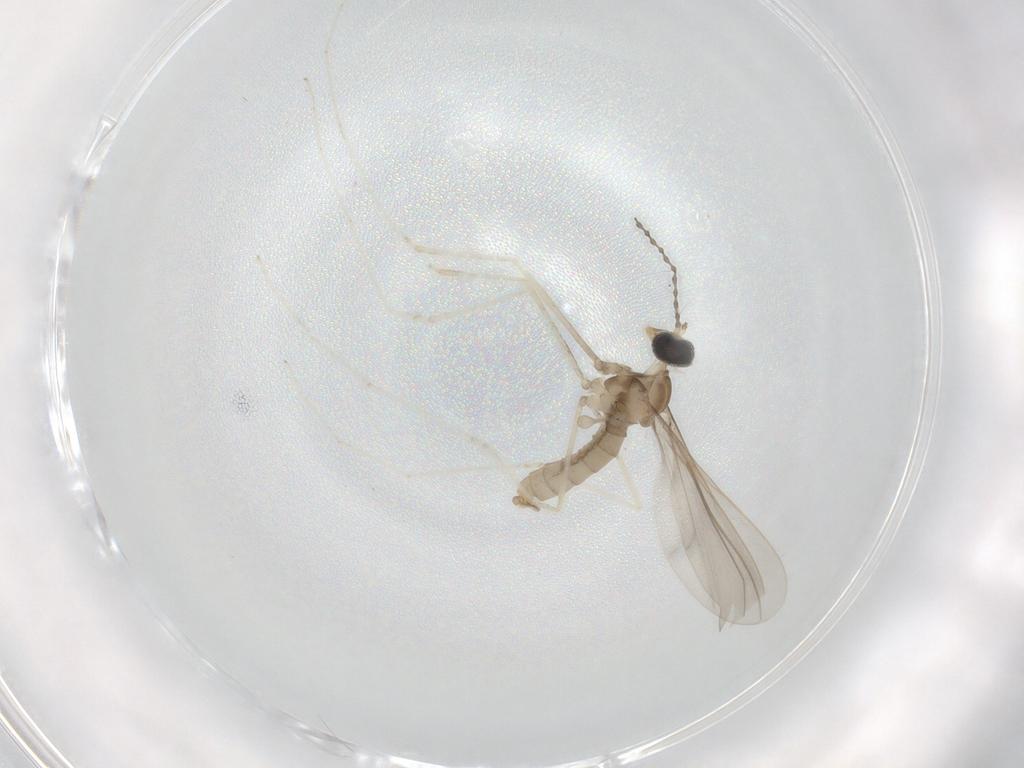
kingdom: Animalia
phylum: Arthropoda
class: Insecta
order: Diptera
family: Cecidomyiidae
